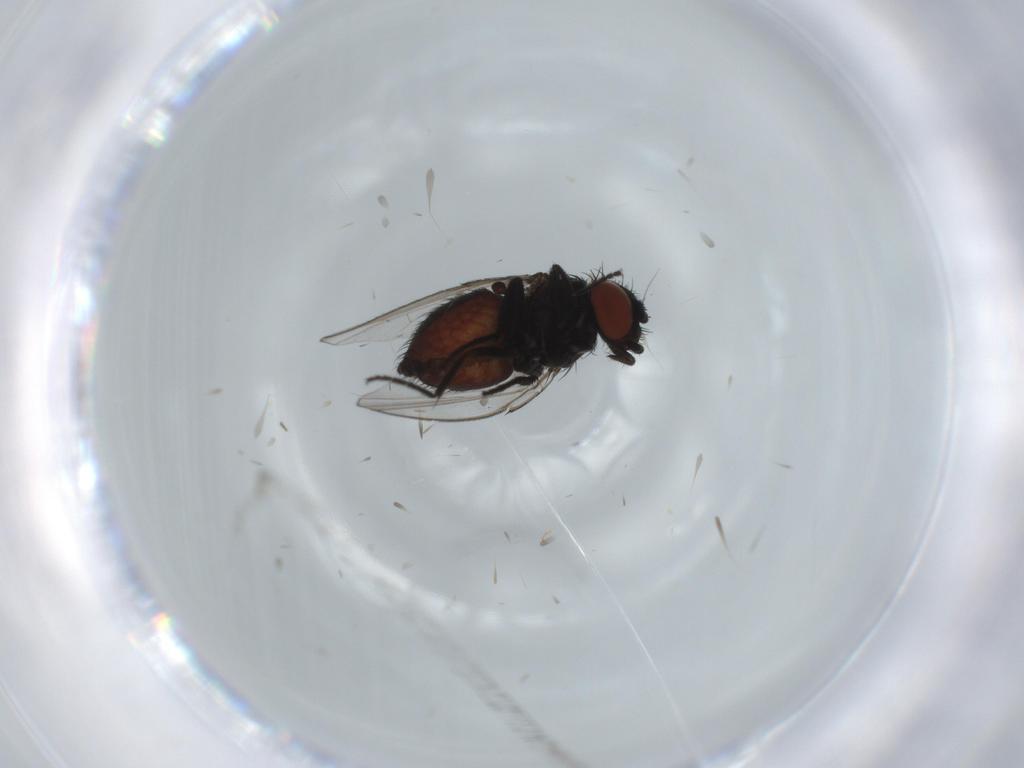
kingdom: Animalia
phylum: Arthropoda
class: Insecta
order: Diptera
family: Milichiidae
